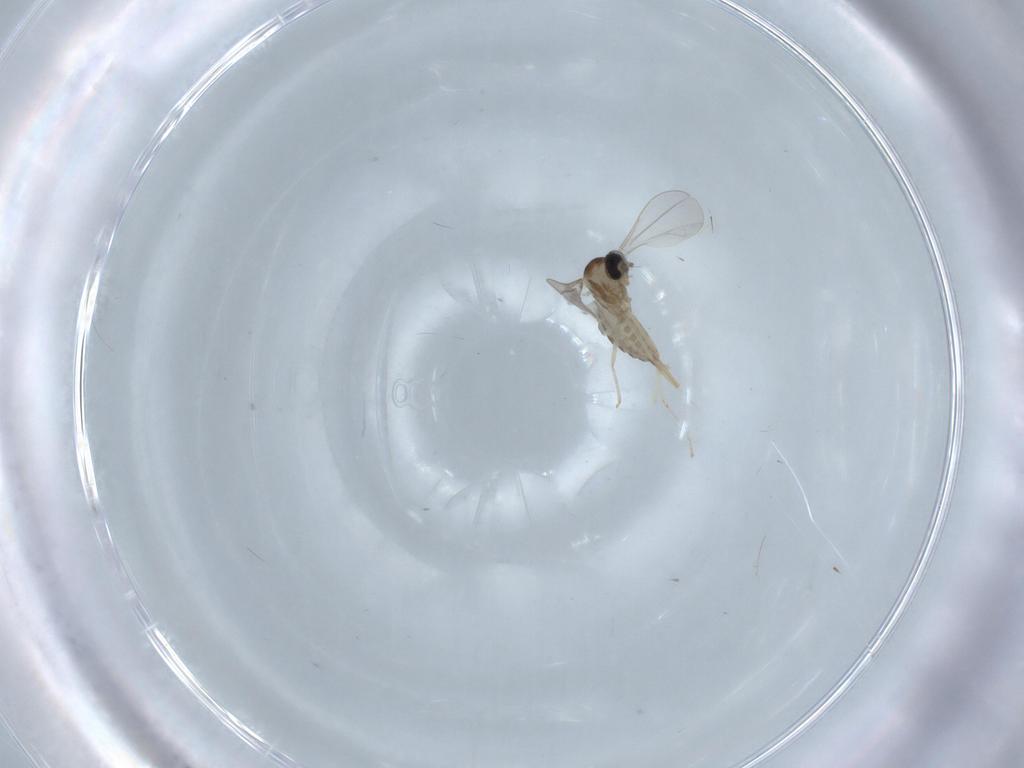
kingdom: Animalia
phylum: Arthropoda
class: Insecta
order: Diptera
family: Cecidomyiidae
